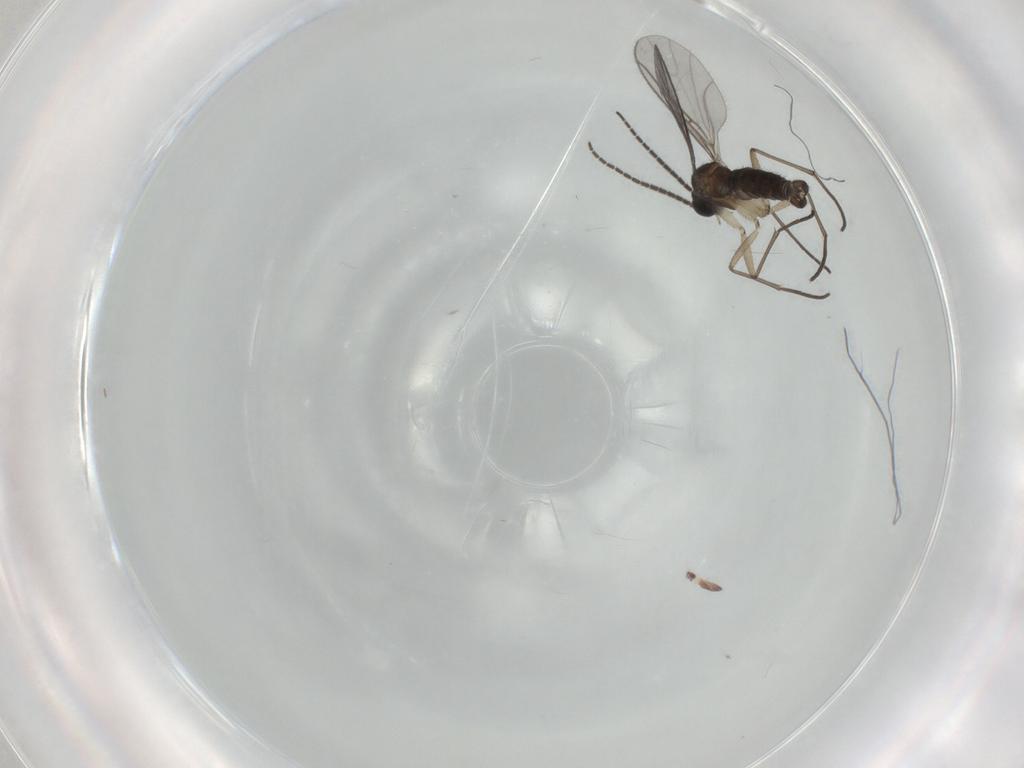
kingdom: Animalia
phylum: Arthropoda
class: Insecta
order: Diptera
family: Sciaridae
